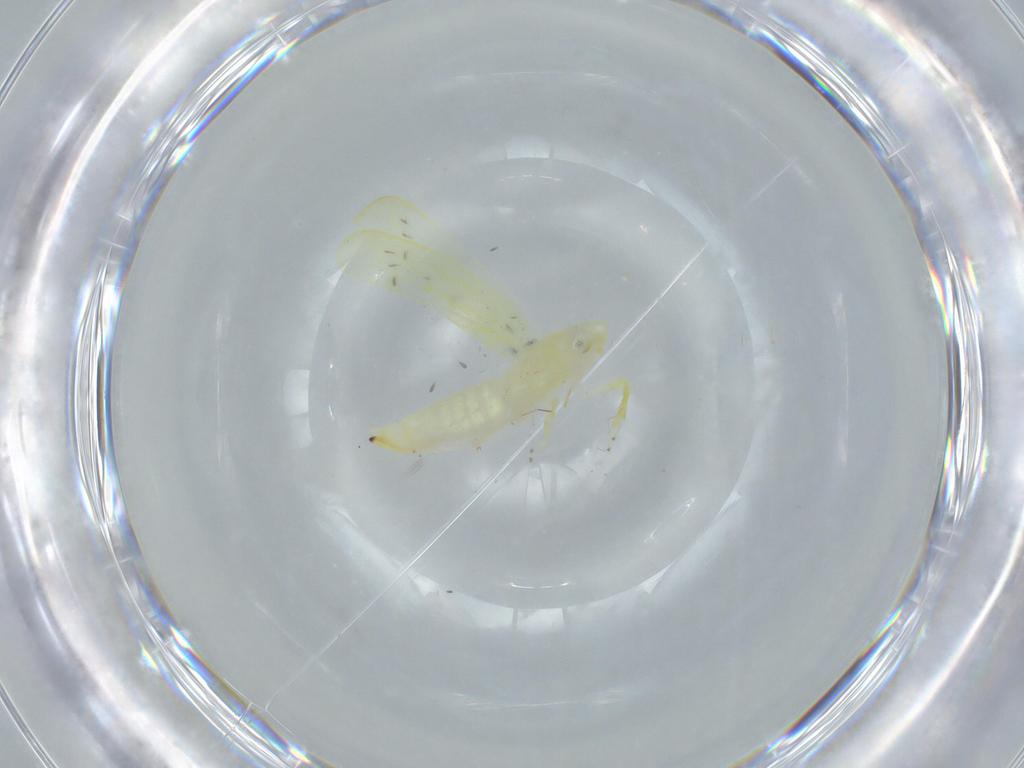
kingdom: Animalia
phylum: Arthropoda
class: Insecta
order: Hemiptera
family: Cicadellidae
